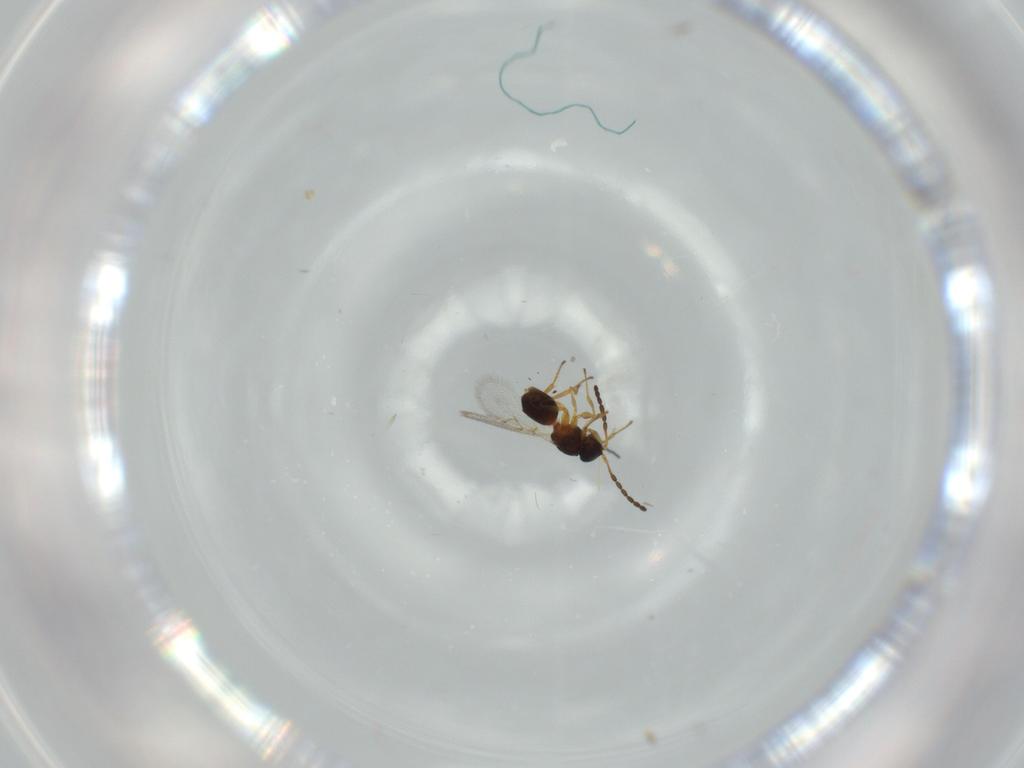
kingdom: Animalia
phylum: Arthropoda
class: Insecta
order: Hymenoptera
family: Figitidae
